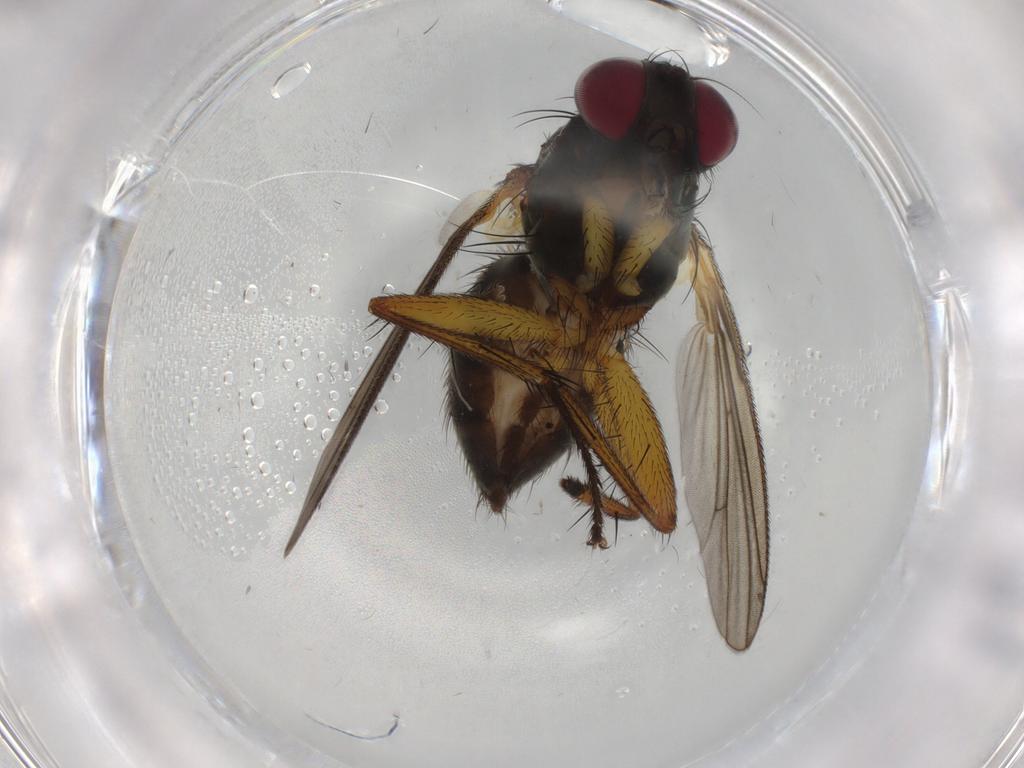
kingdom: Animalia
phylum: Arthropoda
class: Insecta
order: Diptera
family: Muscidae
